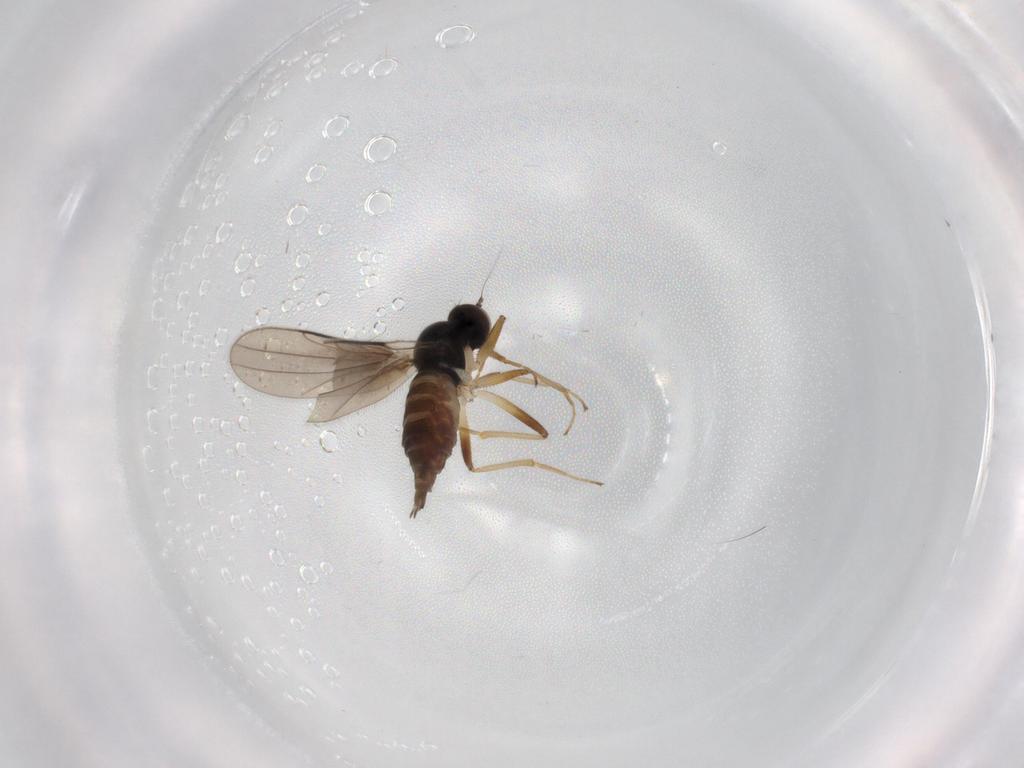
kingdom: Animalia
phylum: Arthropoda
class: Insecta
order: Diptera
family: Hybotidae
